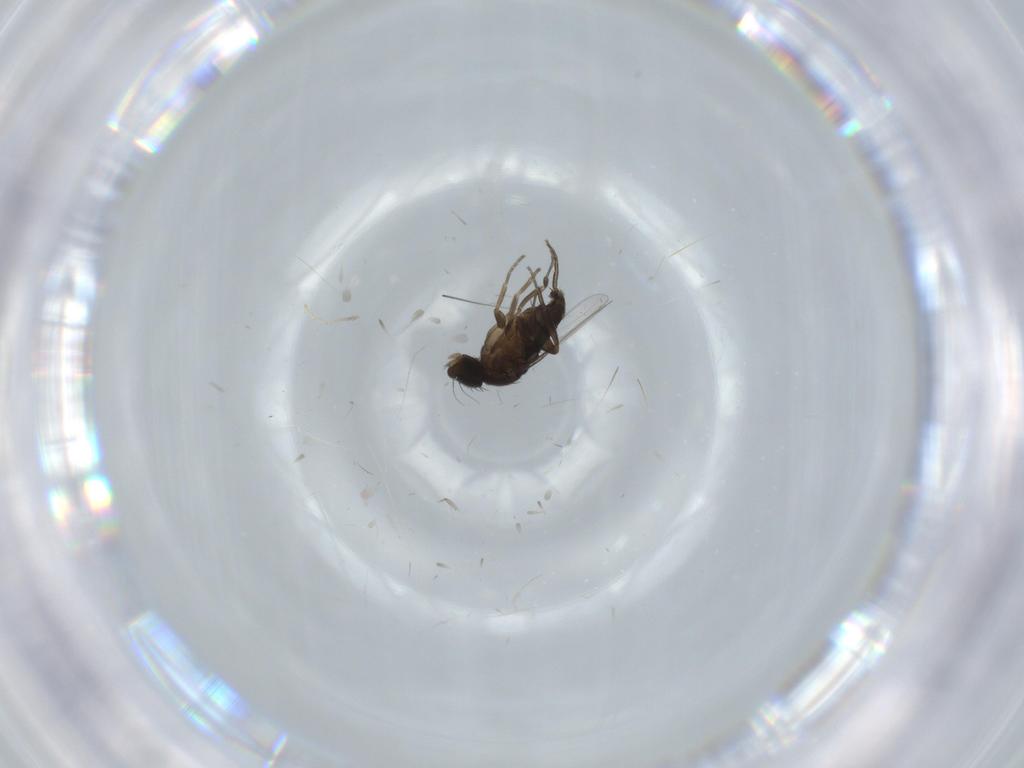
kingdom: Animalia
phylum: Arthropoda
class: Insecta
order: Diptera
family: Phoridae
